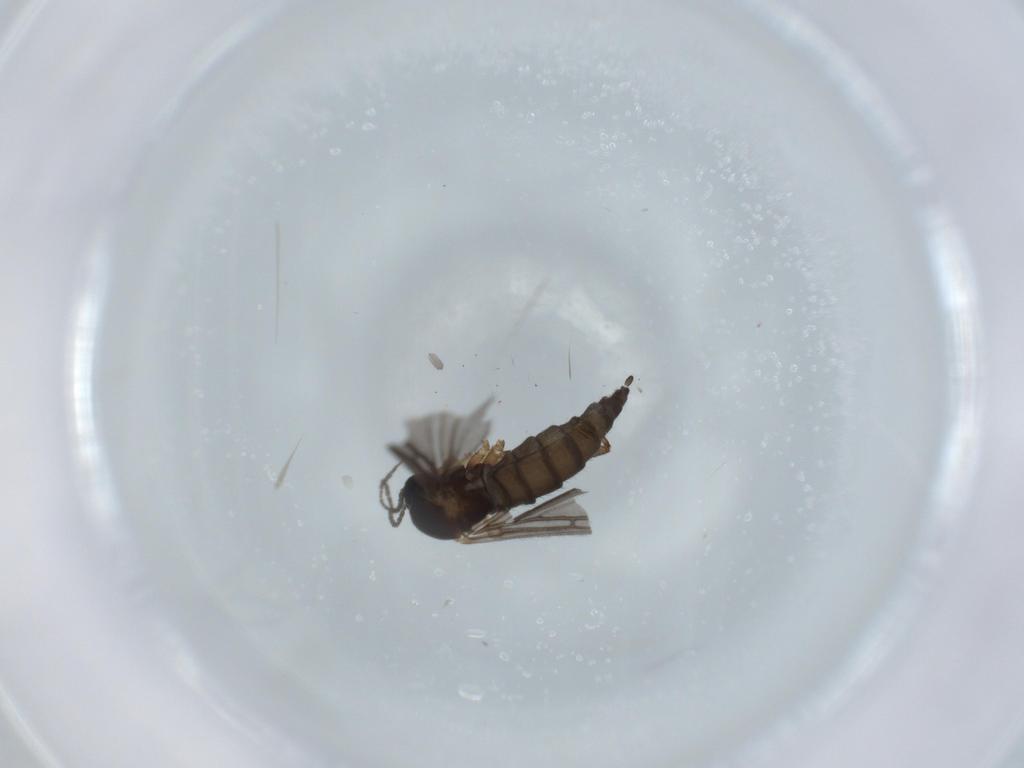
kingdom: Animalia
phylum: Arthropoda
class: Insecta
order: Diptera
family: Sciaridae
